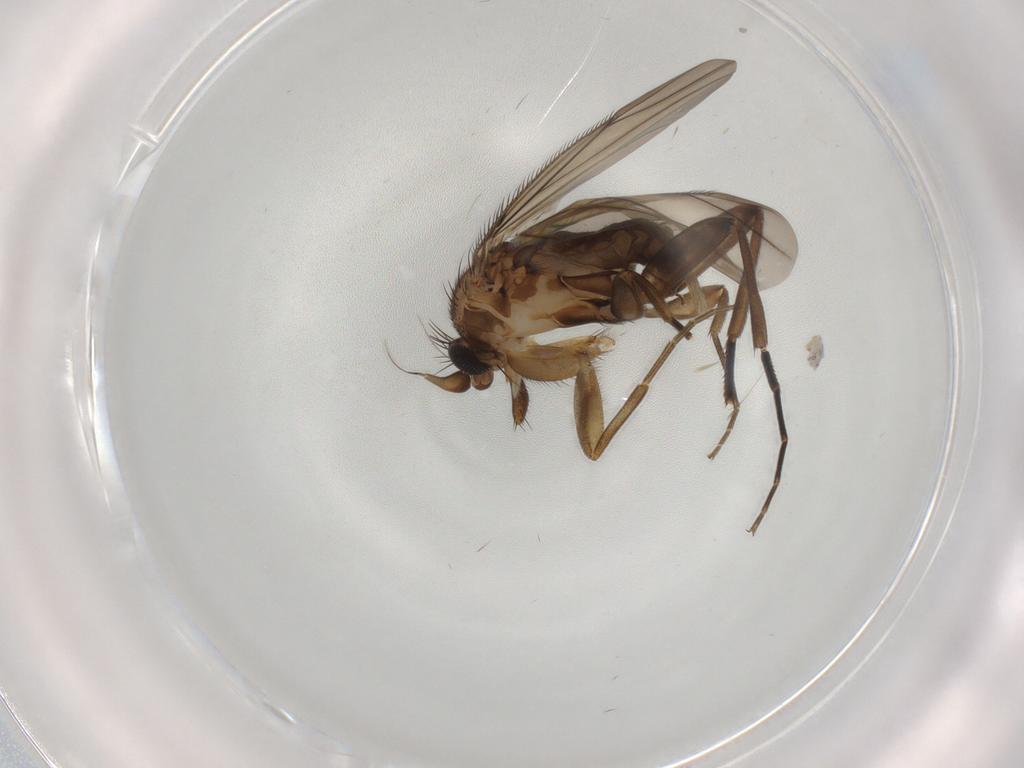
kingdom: Animalia
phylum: Arthropoda
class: Insecta
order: Diptera
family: Phoridae
